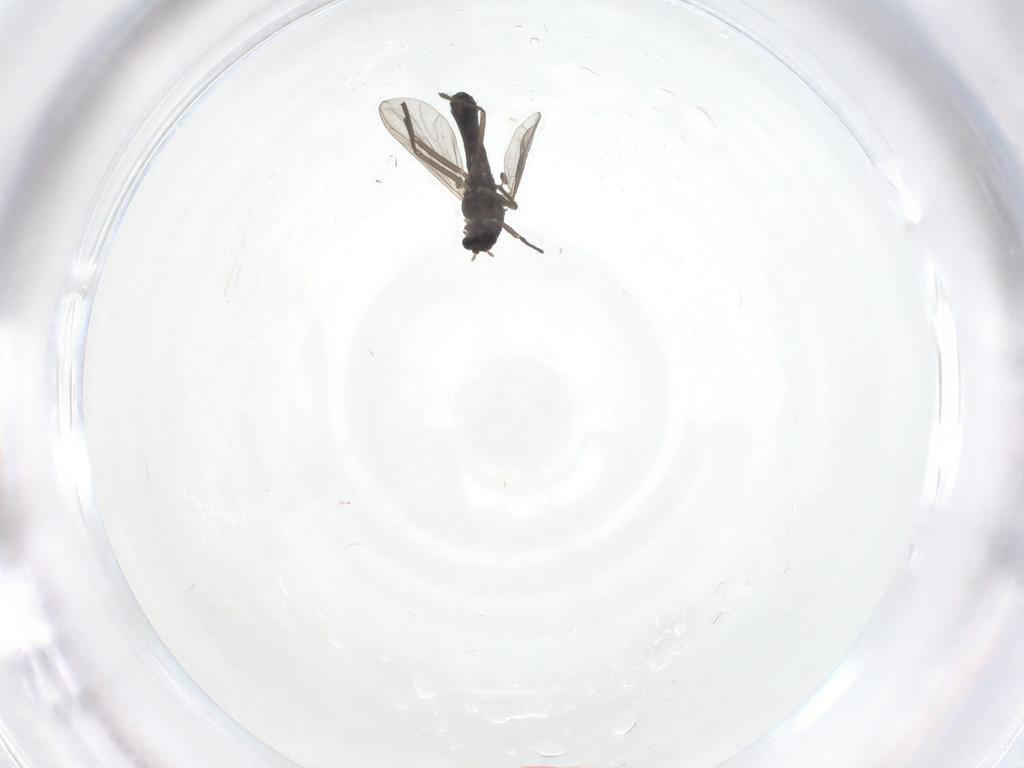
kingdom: Animalia
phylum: Arthropoda
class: Insecta
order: Diptera
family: Chironomidae
